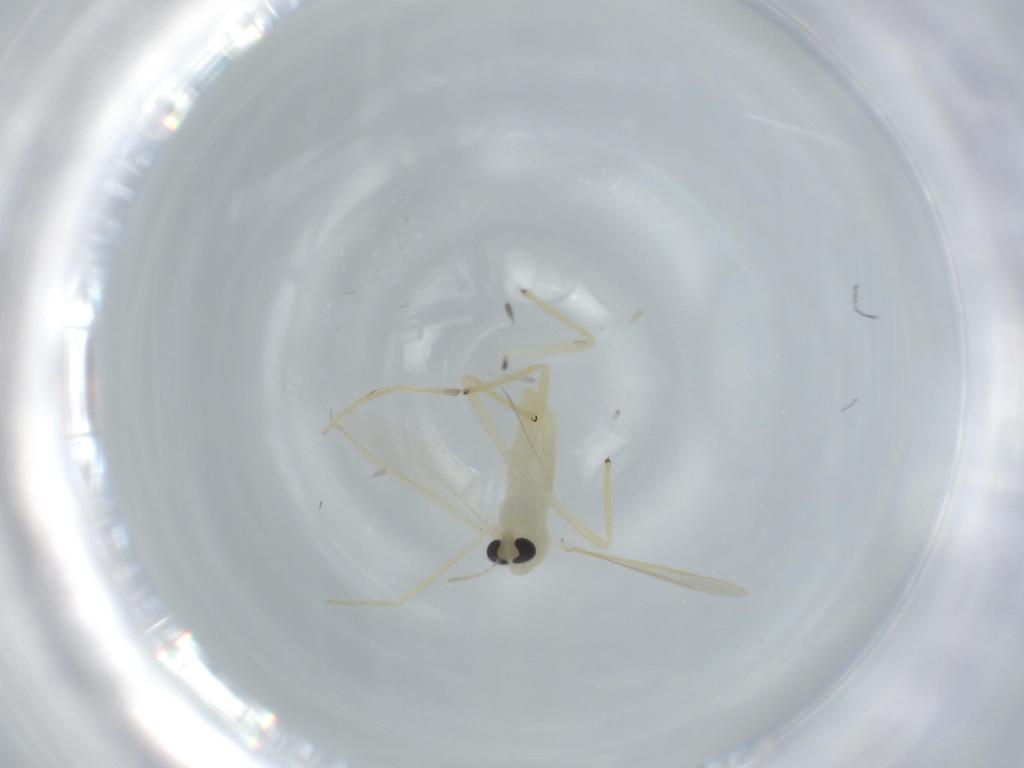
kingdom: Animalia
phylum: Arthropoda
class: Insecta
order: Diptera
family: Chironomidae
